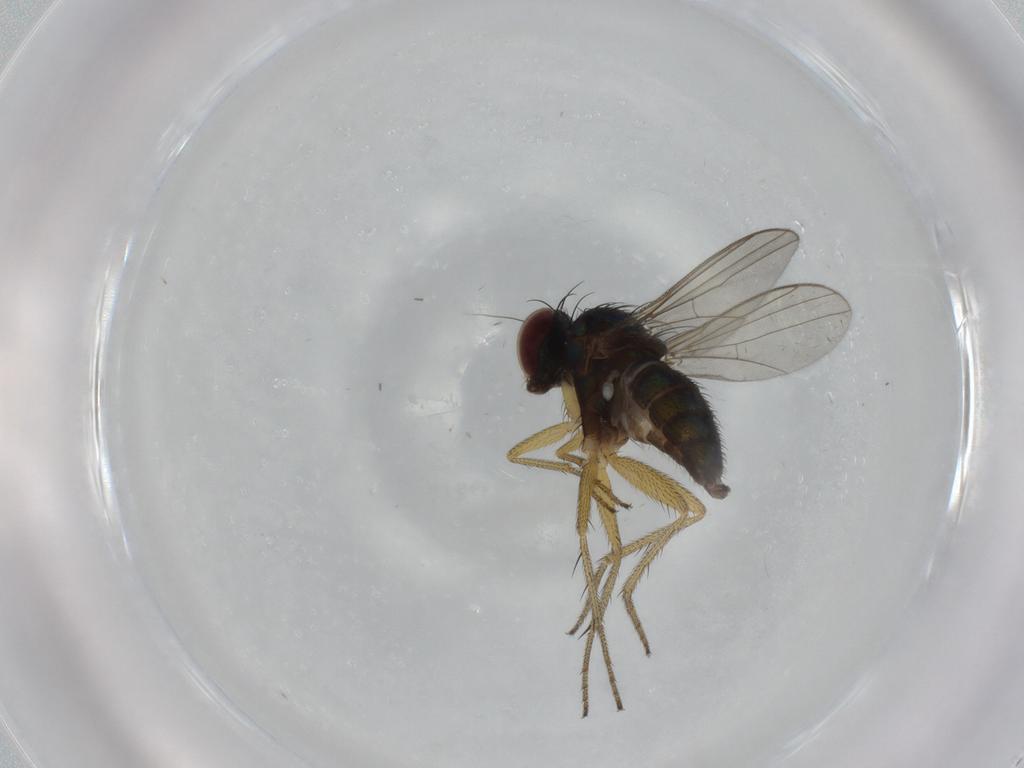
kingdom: Animalia
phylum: Arthropoda
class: Insecta
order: Diptera
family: Dolichopodidae
